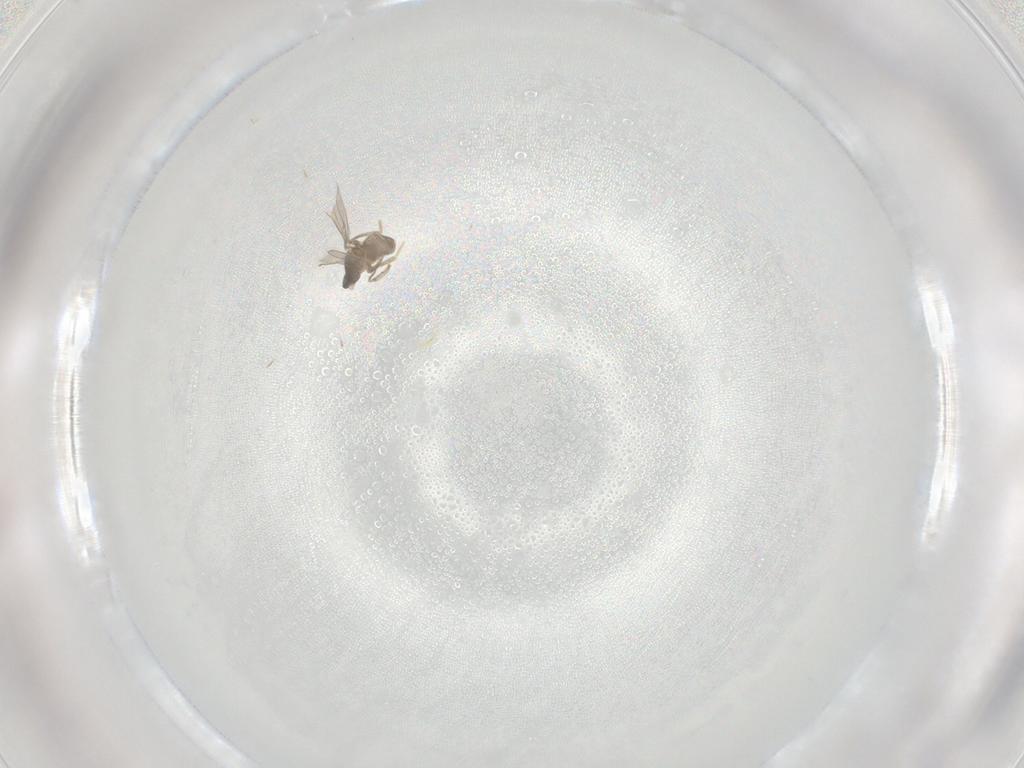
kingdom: Animalia
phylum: Arthropoda
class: Insecta
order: Diptera
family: Cecidomyiidae
